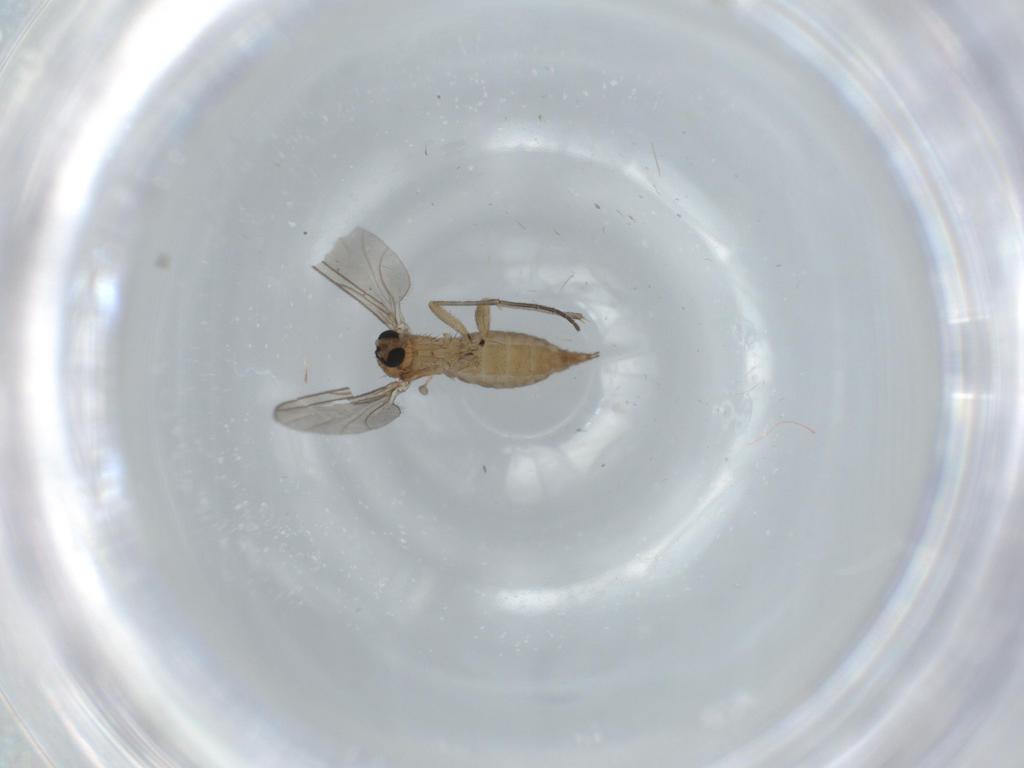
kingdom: Animalia
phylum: Arthropoda
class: Insecta
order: Diptera
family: Sciaridae
